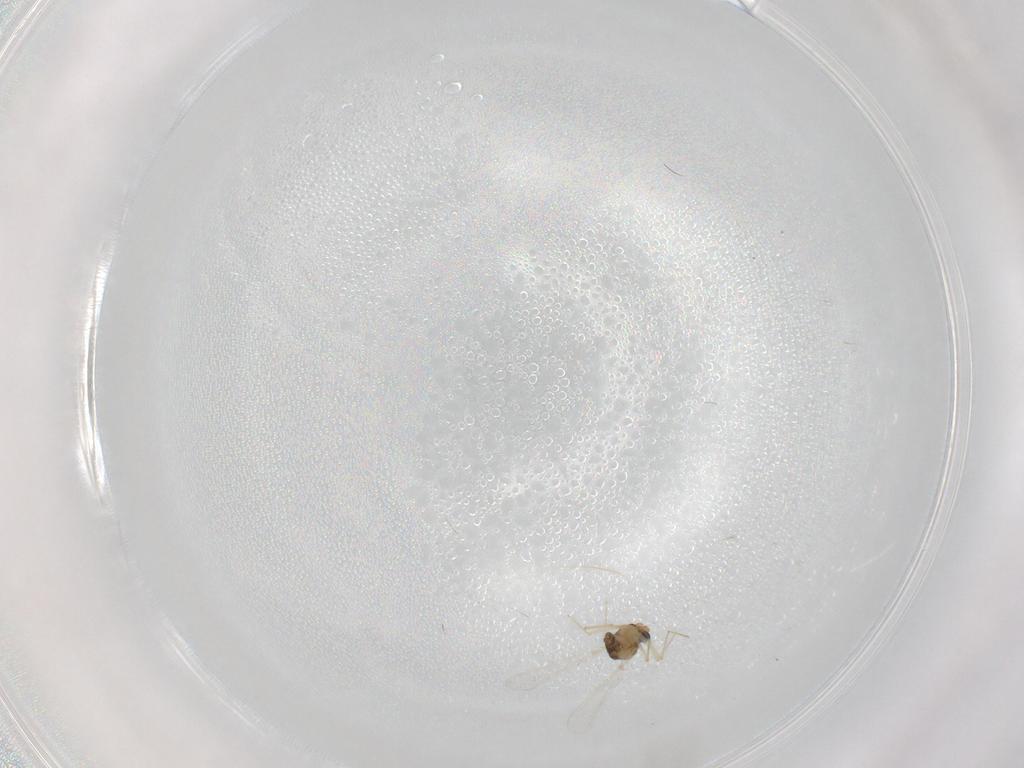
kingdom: Animalia
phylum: Arthropoda
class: Insecta
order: Diptera
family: Chironomidae
